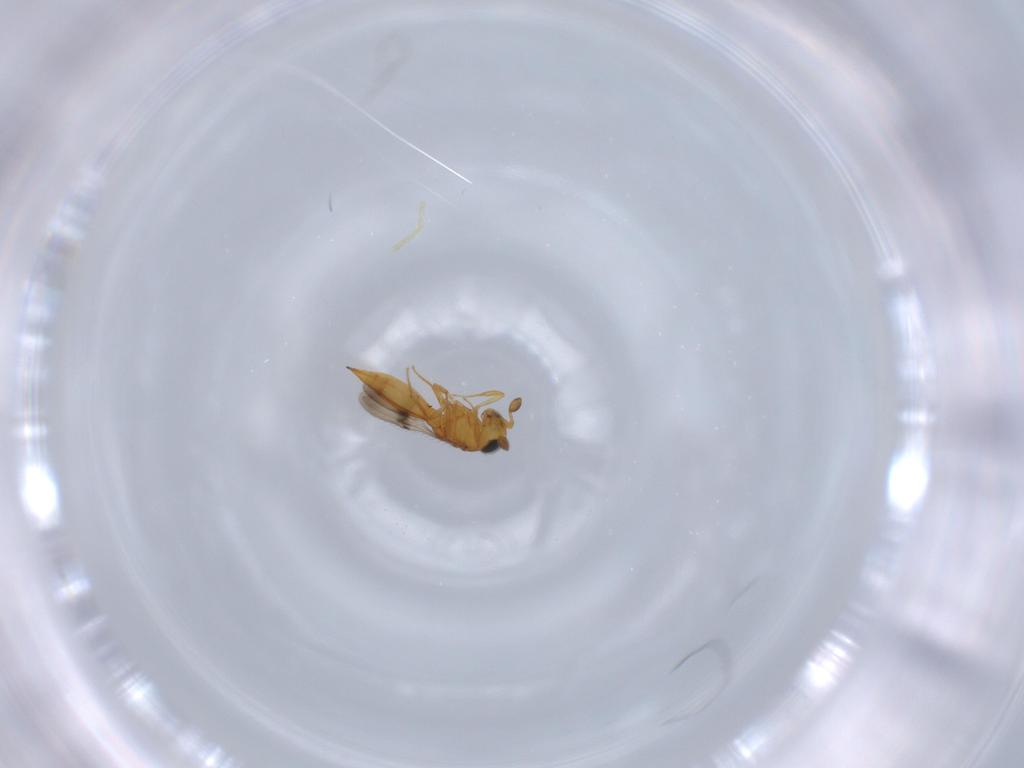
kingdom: Animalia
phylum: Arthropoda
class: Insecta
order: Hymenoptera
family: Scelionidae
